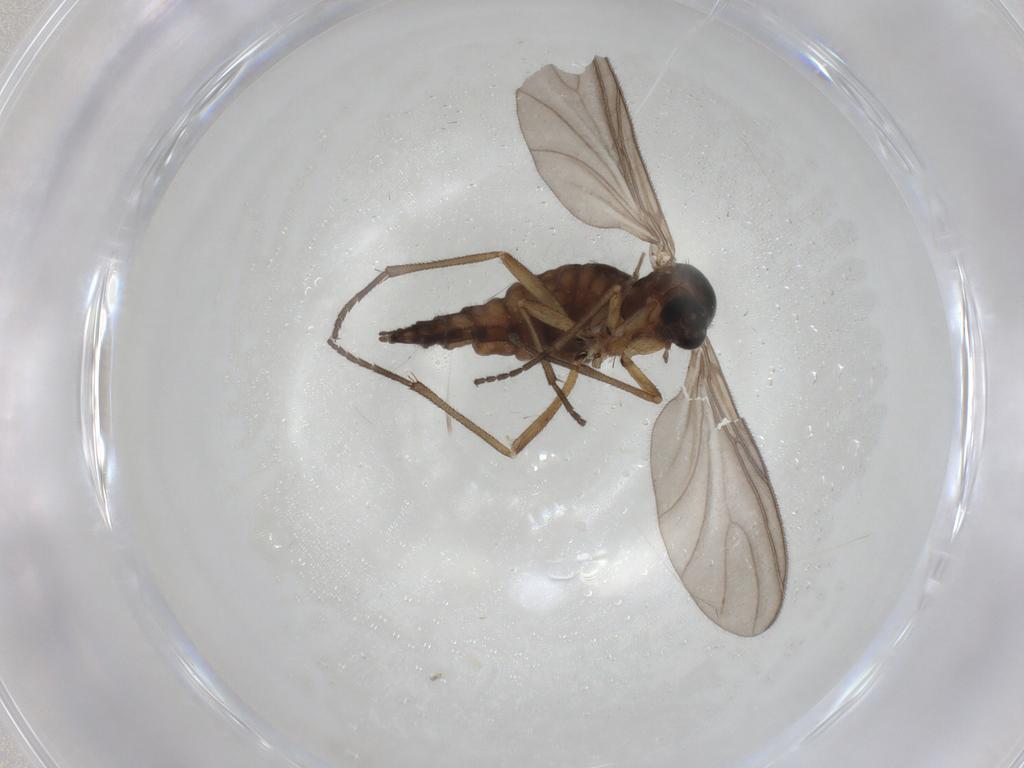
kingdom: Animalia
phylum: Arthropoda
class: Insecta
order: Diptera
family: Sciaridae
